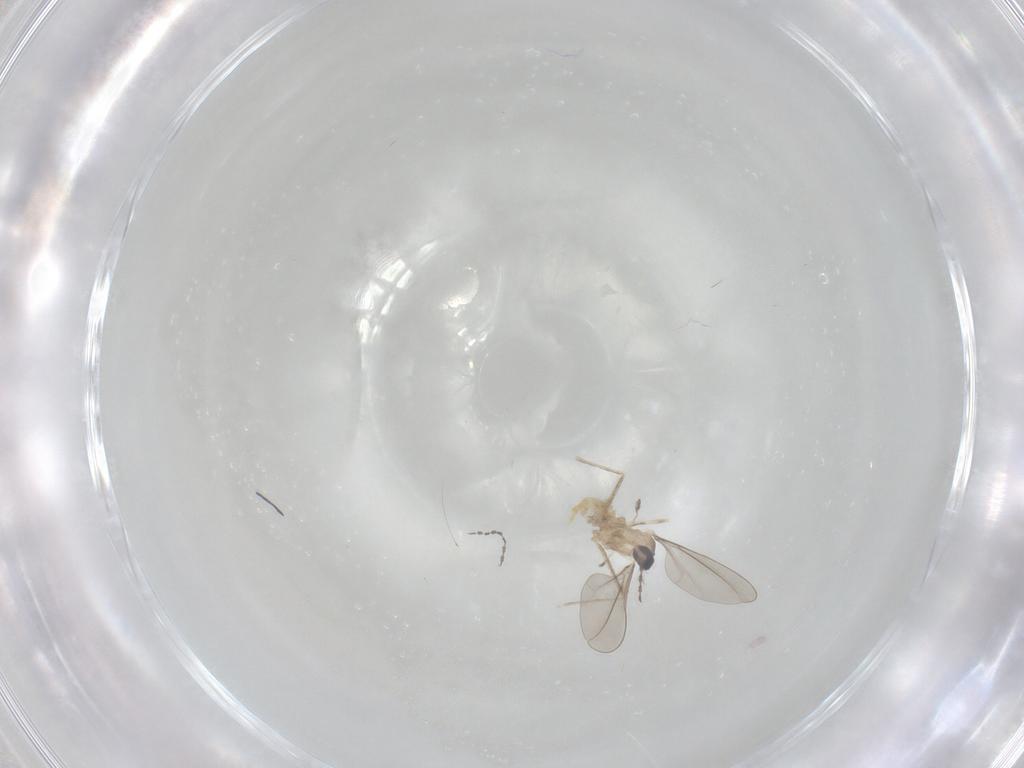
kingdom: Animalia
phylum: Arthropoda
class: Insecta
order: Diptera
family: Cecidomyiidae
